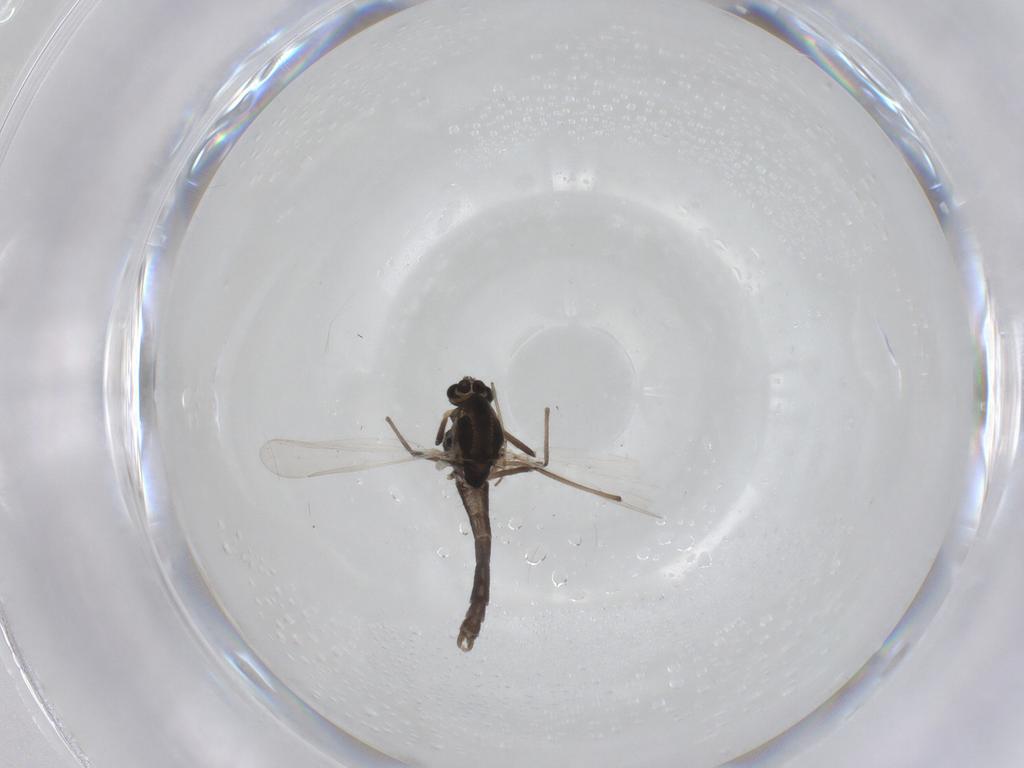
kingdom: Animalia
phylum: Arthropoda
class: Insecta
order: Diptera
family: Chironomidae
